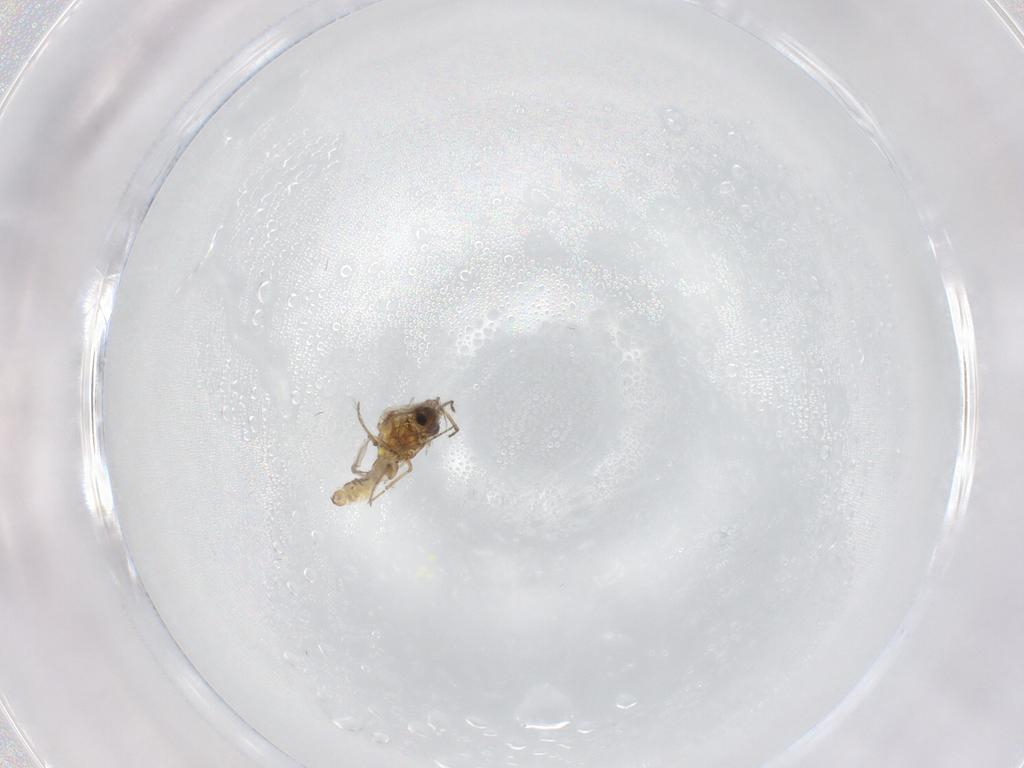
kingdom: Animalia
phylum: Arthropoda
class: Insecta
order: Diptera
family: Cecidomyiidae
